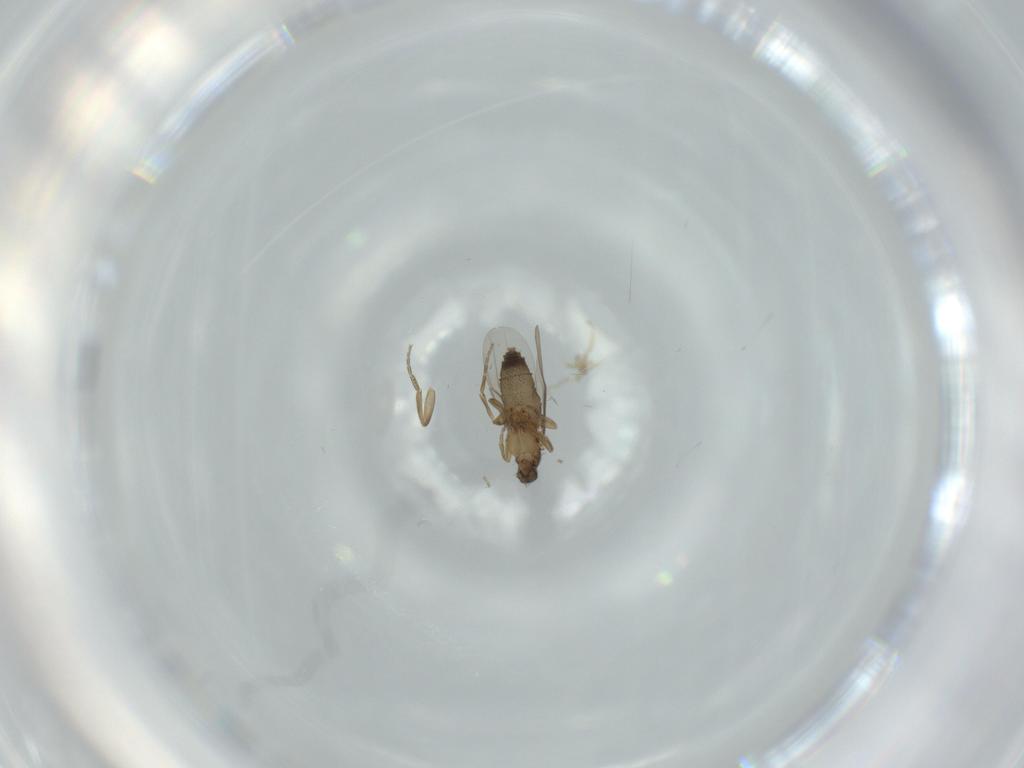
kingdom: Animalia
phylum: Arthropoda
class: Insecta
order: Diptera
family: Phoridae
